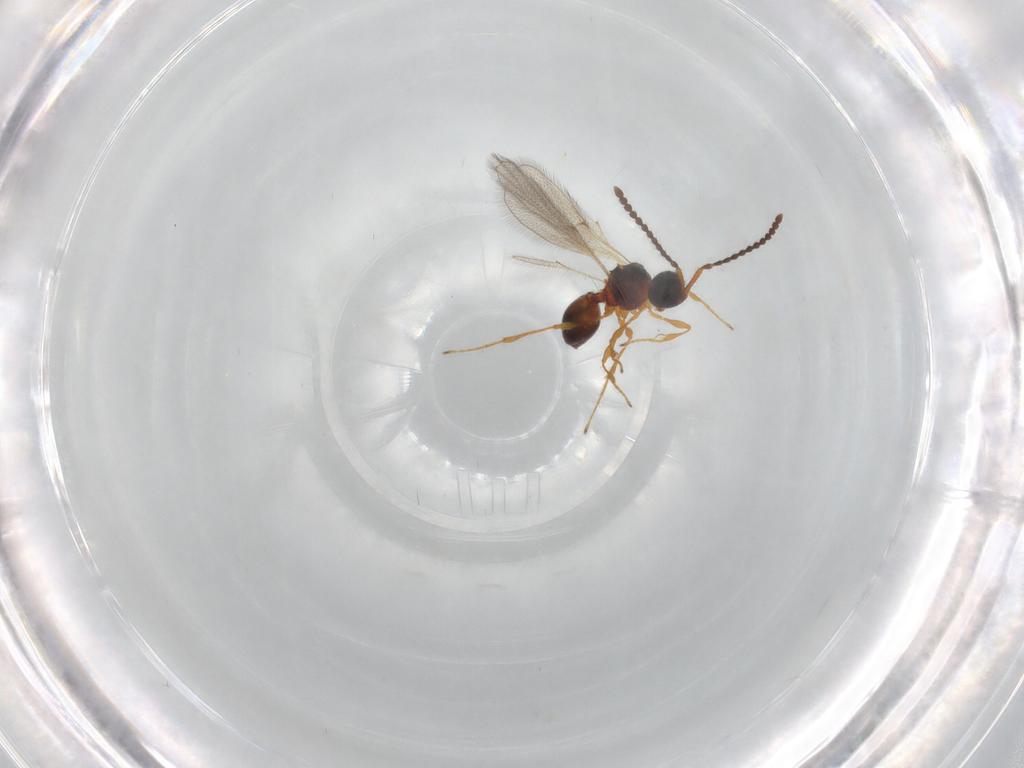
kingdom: Animalia
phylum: Arthropoda
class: Insecta
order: Hymenoptera
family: Diapriidae
